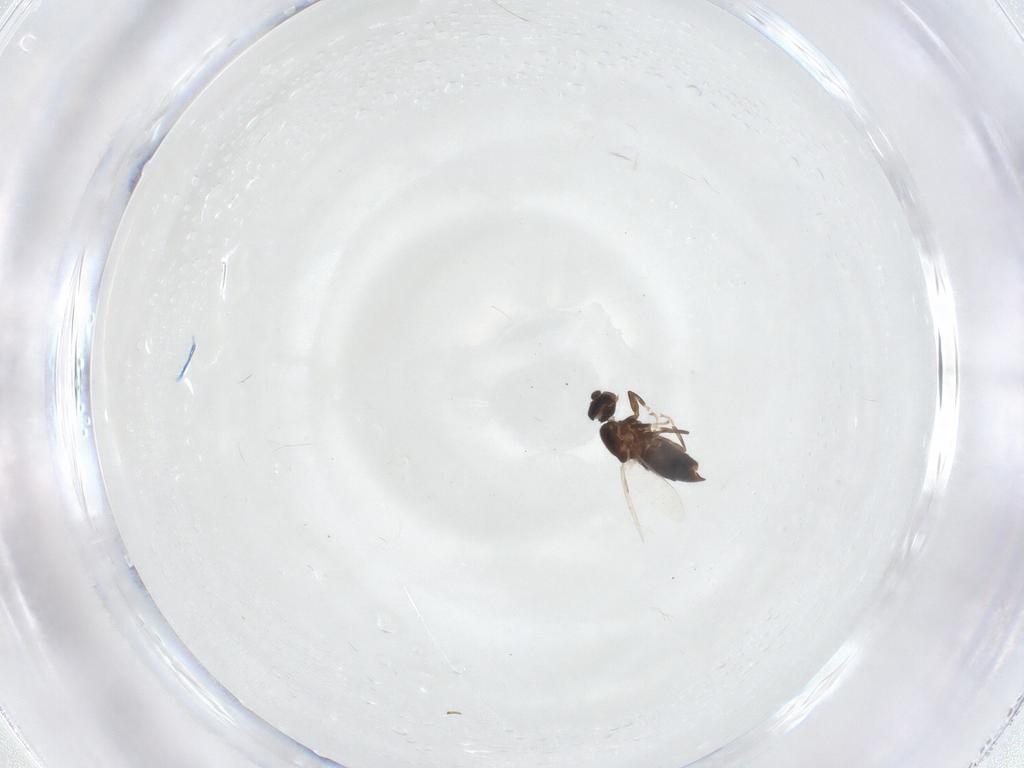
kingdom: Animalia
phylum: Arthropoda
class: Insecta
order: Diptera
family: Scatopsidae
